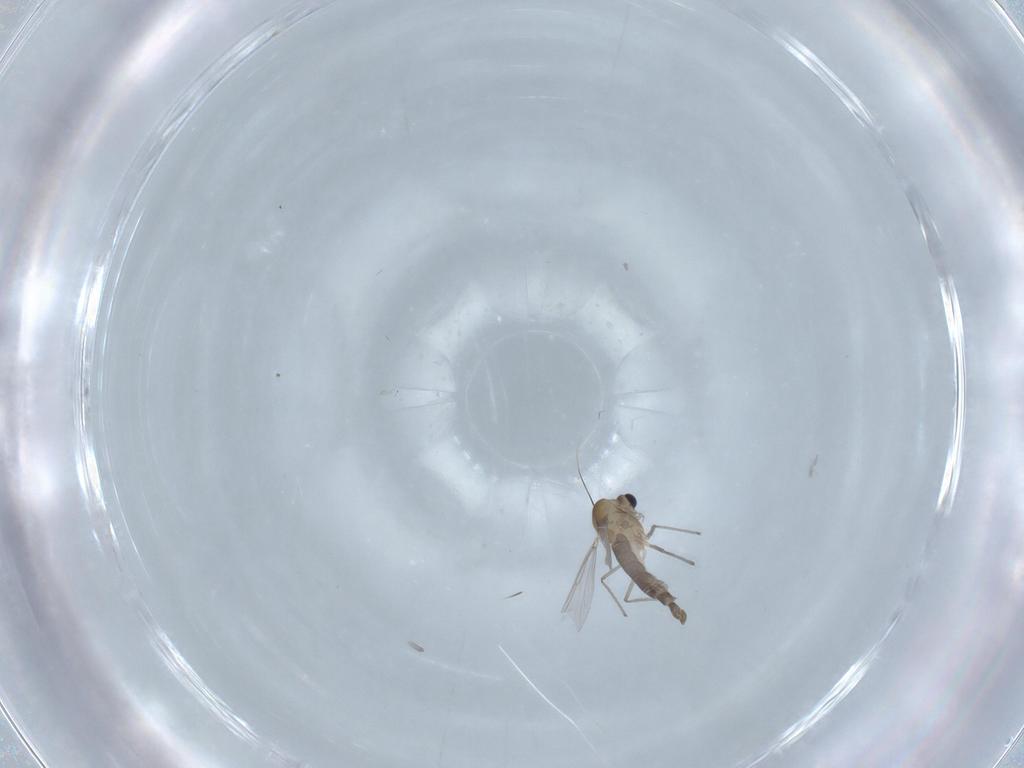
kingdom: Animalia
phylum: Arthropoda
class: Insecta
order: Diptera
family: Chironomidae
